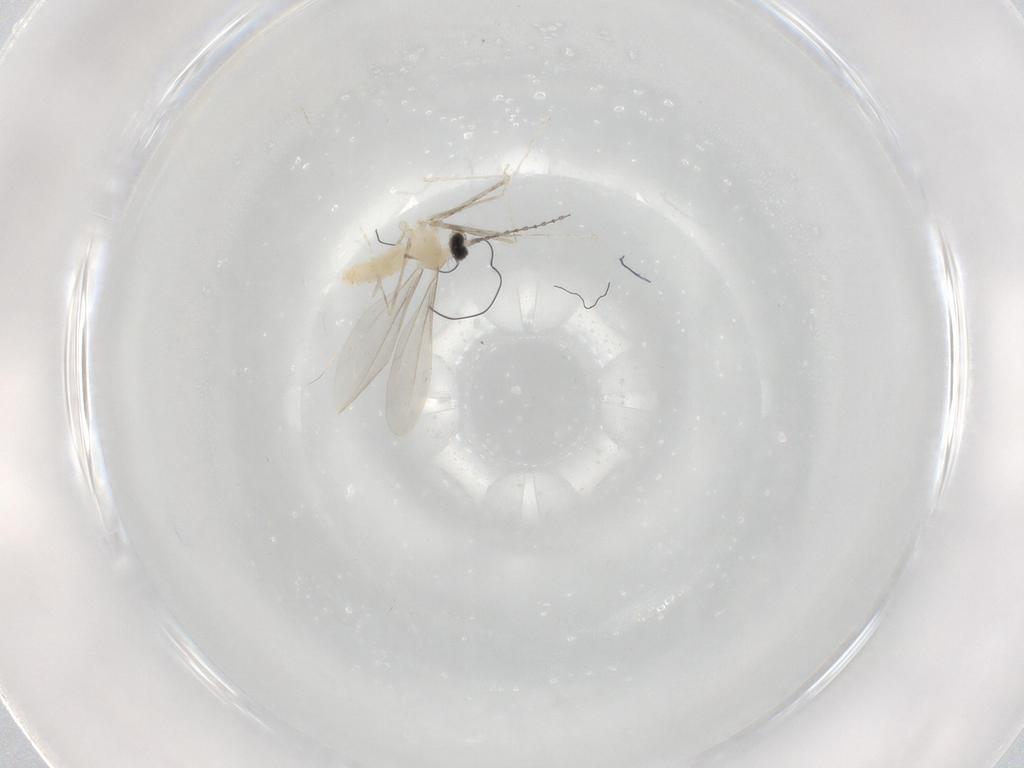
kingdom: Animalia
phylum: Arthropoda
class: Insecta
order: Diptera
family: Cecidomyiidae
